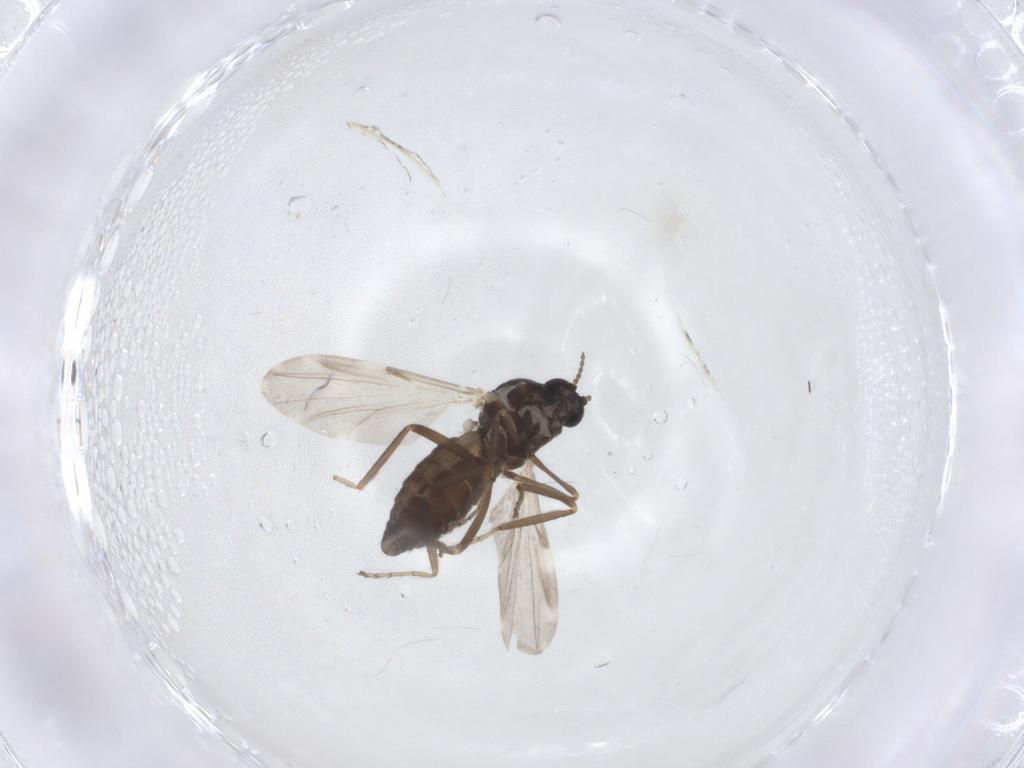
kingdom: Animalia
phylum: Arthropoda
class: Insecta
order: Diptera
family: Ceratopogonidae
